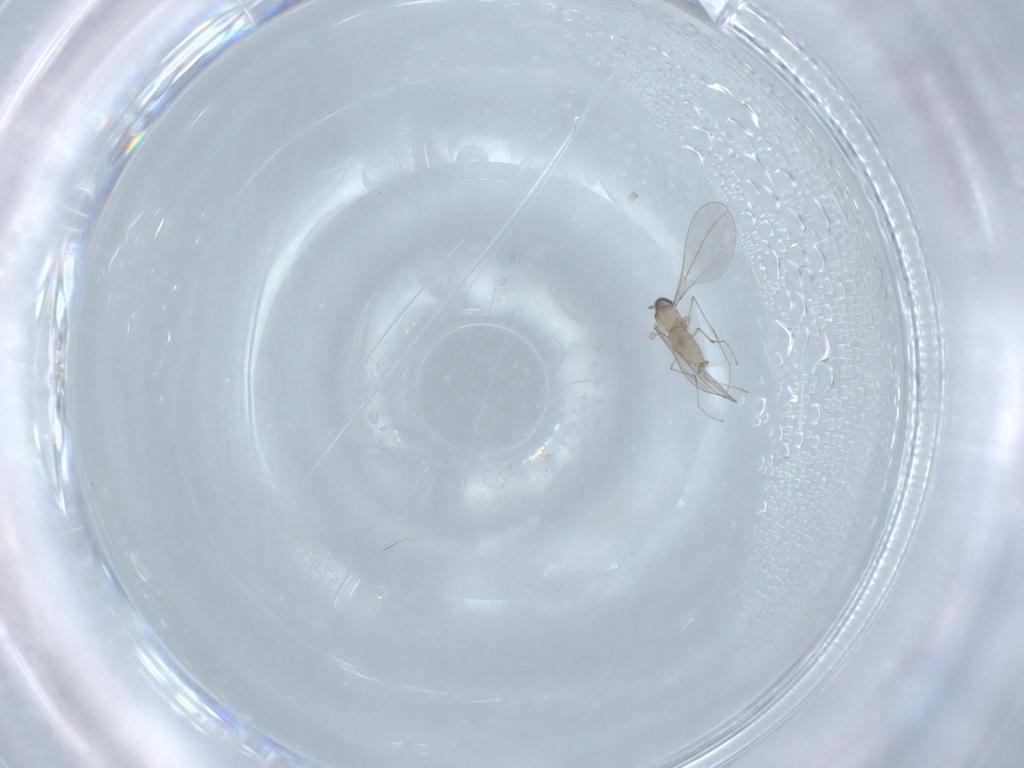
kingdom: Animalia
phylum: Arthropoda
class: Insecta
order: Diptera
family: Cecidomyiidae
